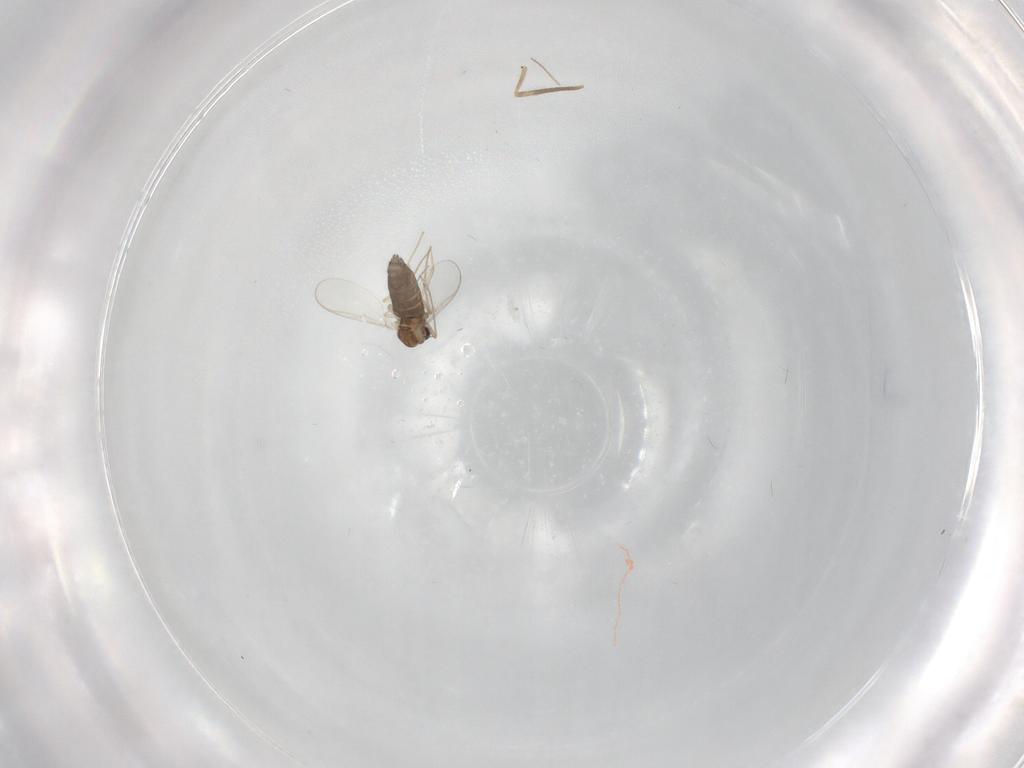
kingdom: Animalia
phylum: Arthropoda
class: Insecta
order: Diptera
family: Chironomidae
